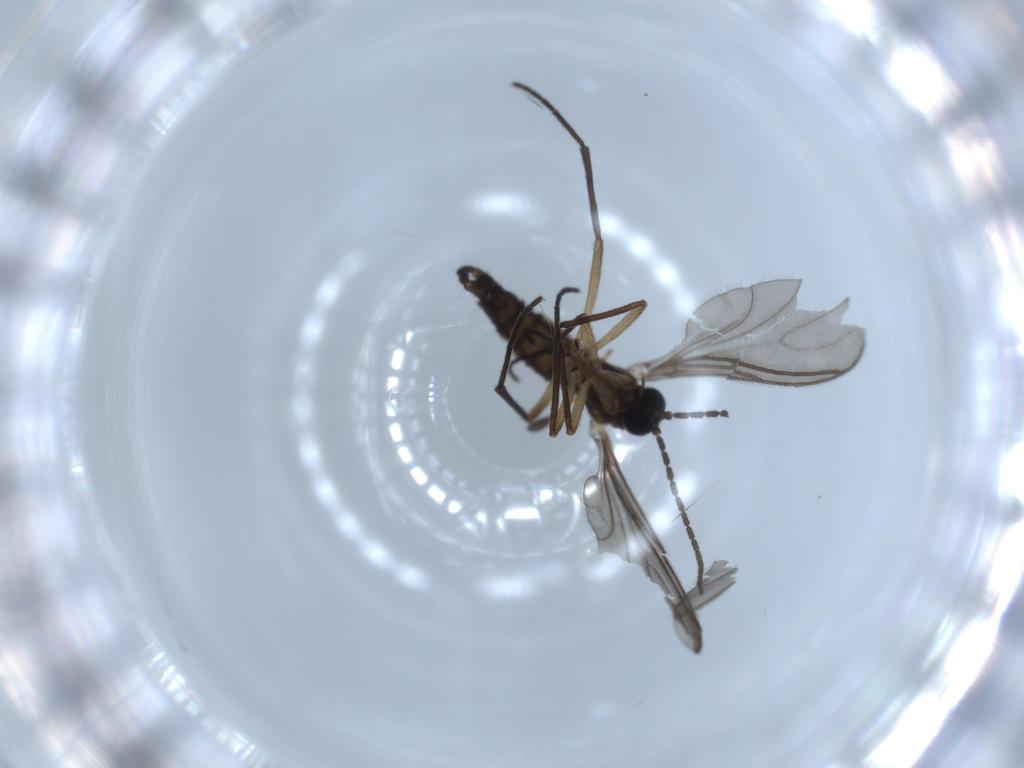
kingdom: Animalia
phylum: Arthropoda
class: Insecta
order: Diptera
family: Sciaridae
